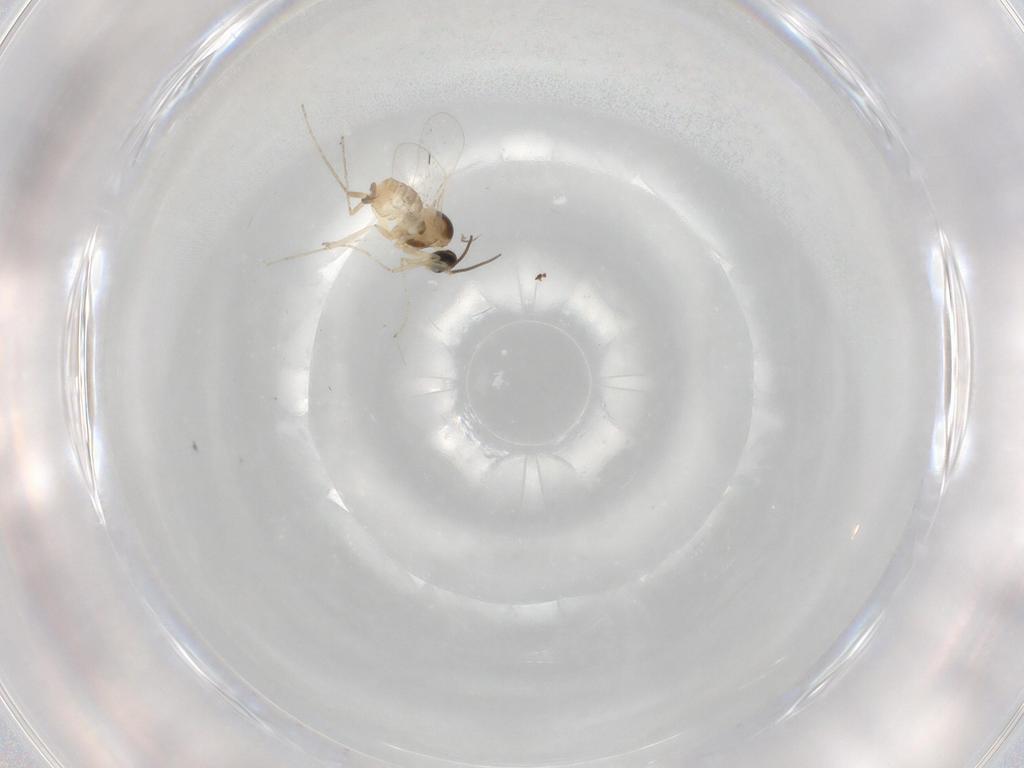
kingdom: Animalia
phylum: Arthropoda
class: Insecta
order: Diptera
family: Cecidomyiidae
